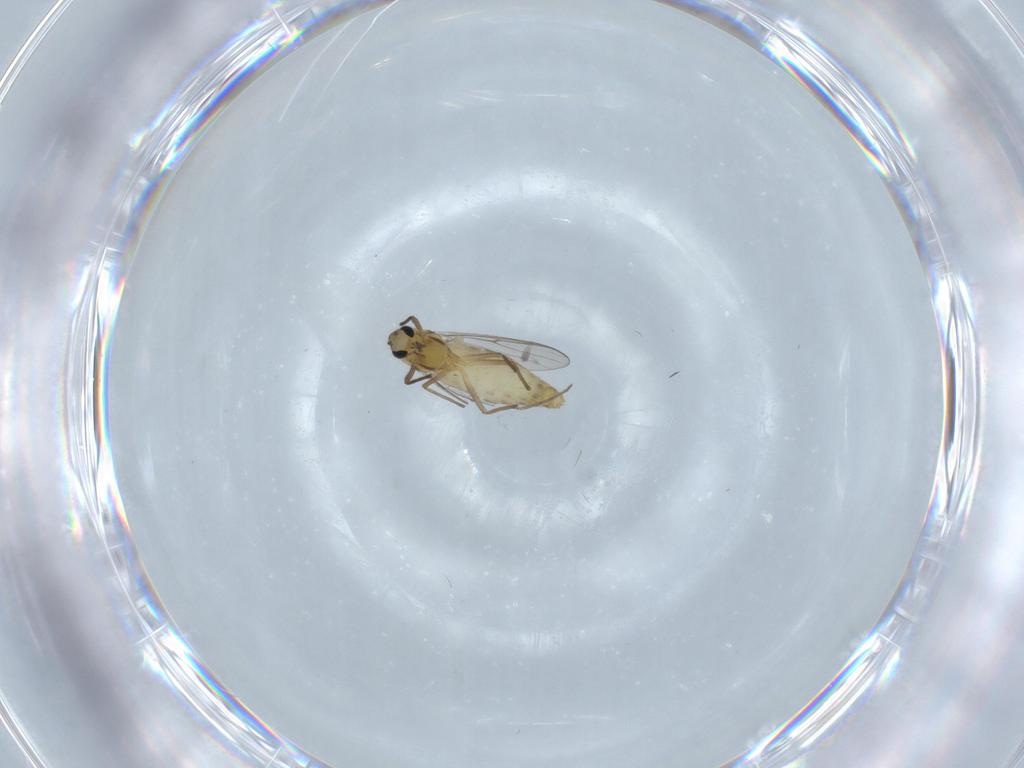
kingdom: Animalia
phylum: Arthropoda
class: Insecta
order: Diptera
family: Chironomidae
